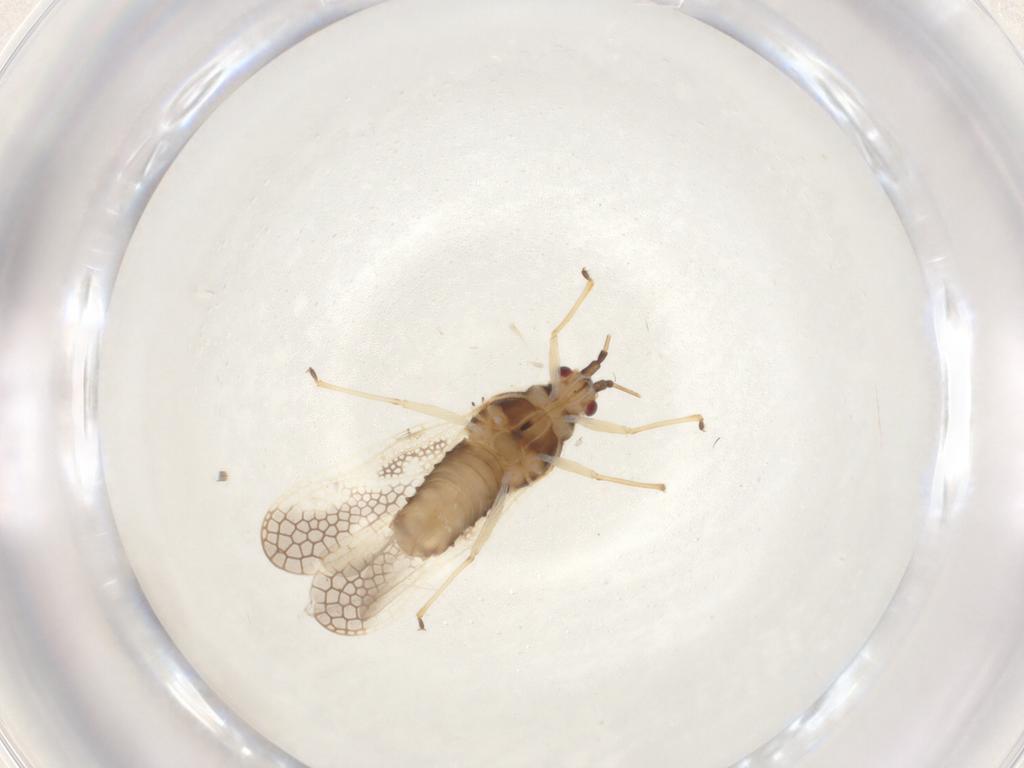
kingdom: Animalia
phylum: Arthropoda
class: Insecta
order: Hemiptera
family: Tingidae
